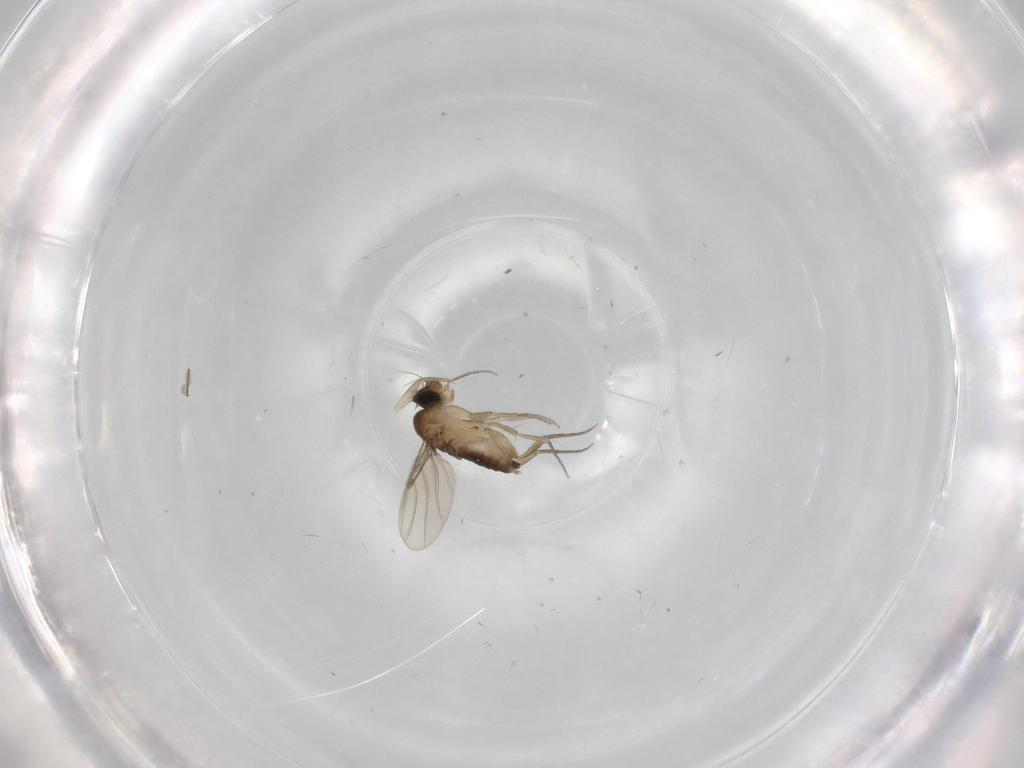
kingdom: Animalia
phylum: Arthropoda
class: Insecta
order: Diptera
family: Phoridae
